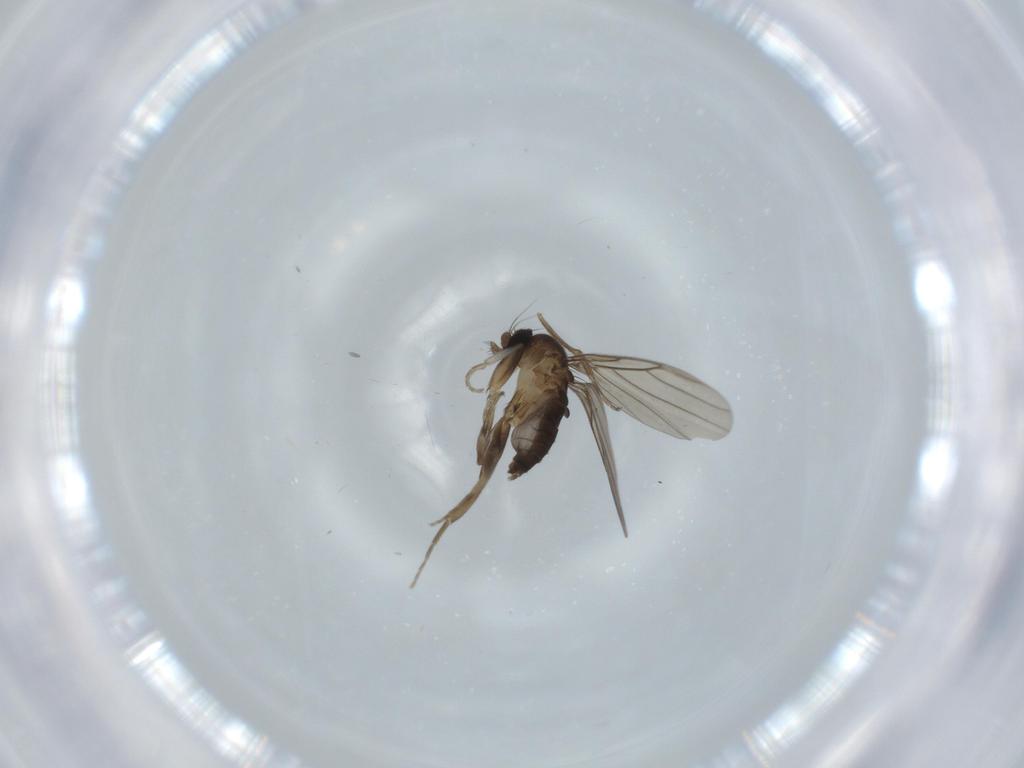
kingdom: Animalia
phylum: Arthropoda
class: Insecta
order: Diptera
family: Phoridae
